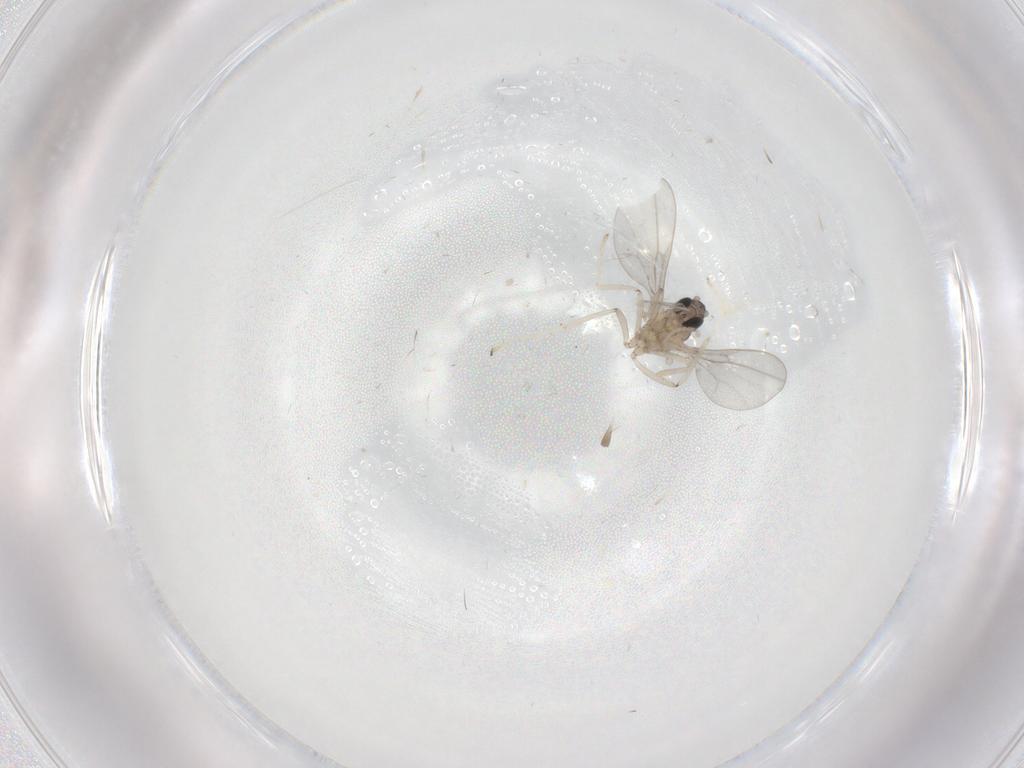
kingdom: Animalia
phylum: Arthropoda
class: Insecta
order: Diptera
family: Cecidomyiidae
